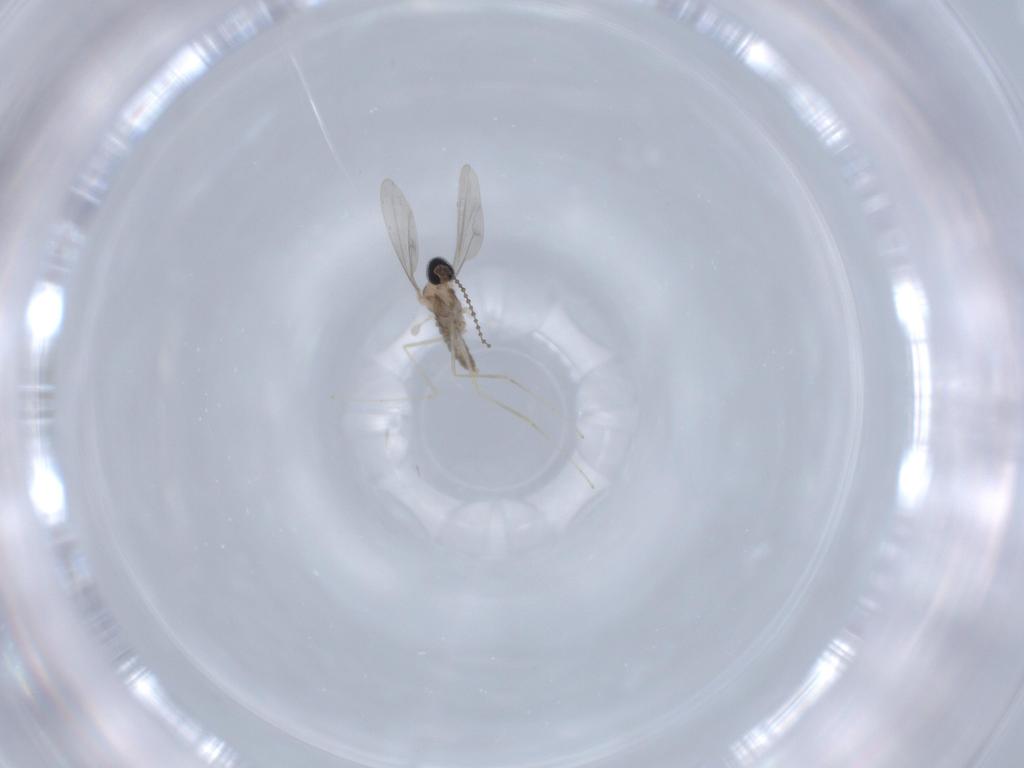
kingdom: Animalia
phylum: Arthropoda
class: Insecta
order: Diptera
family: Cecidomyiidae
